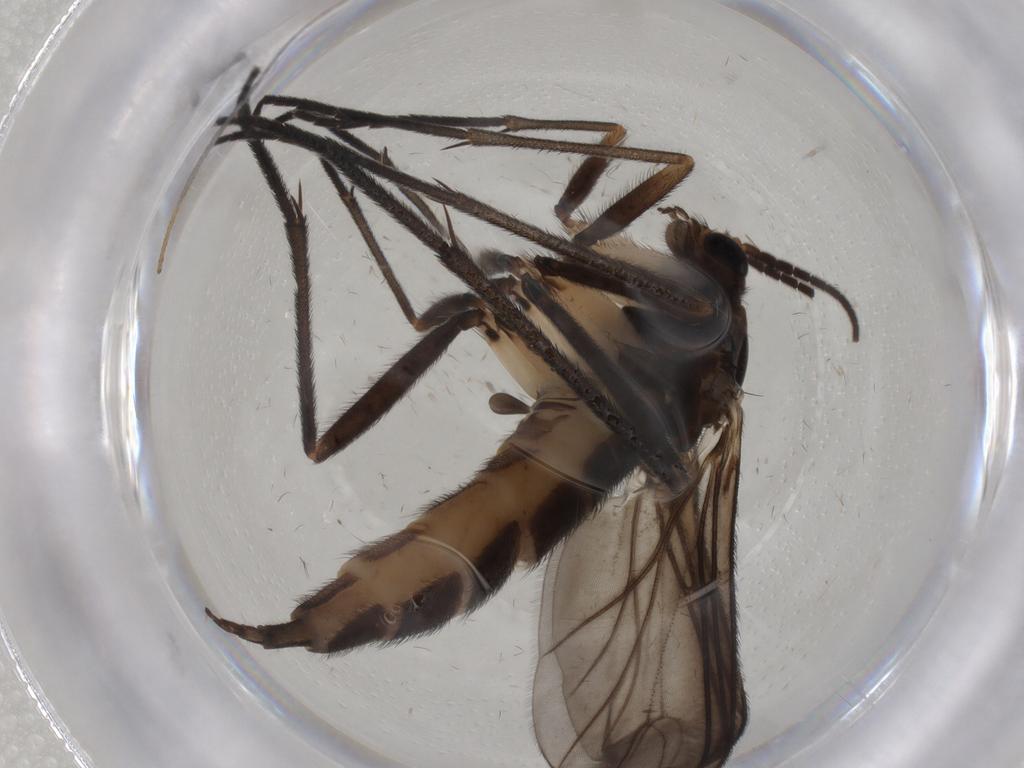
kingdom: Animalia
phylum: Arthropoda
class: Insecta
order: Diptera
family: Sciaridae
